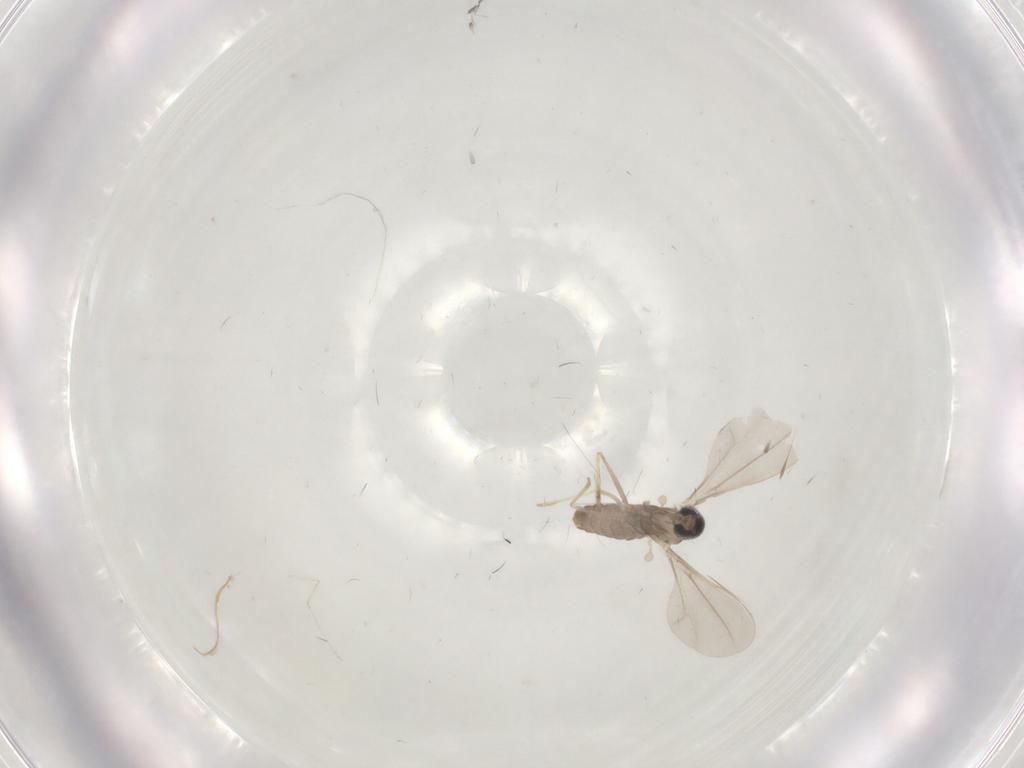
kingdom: Animalia
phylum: Arthropoda
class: Insecta
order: Diptera
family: Cecidomyiidae
